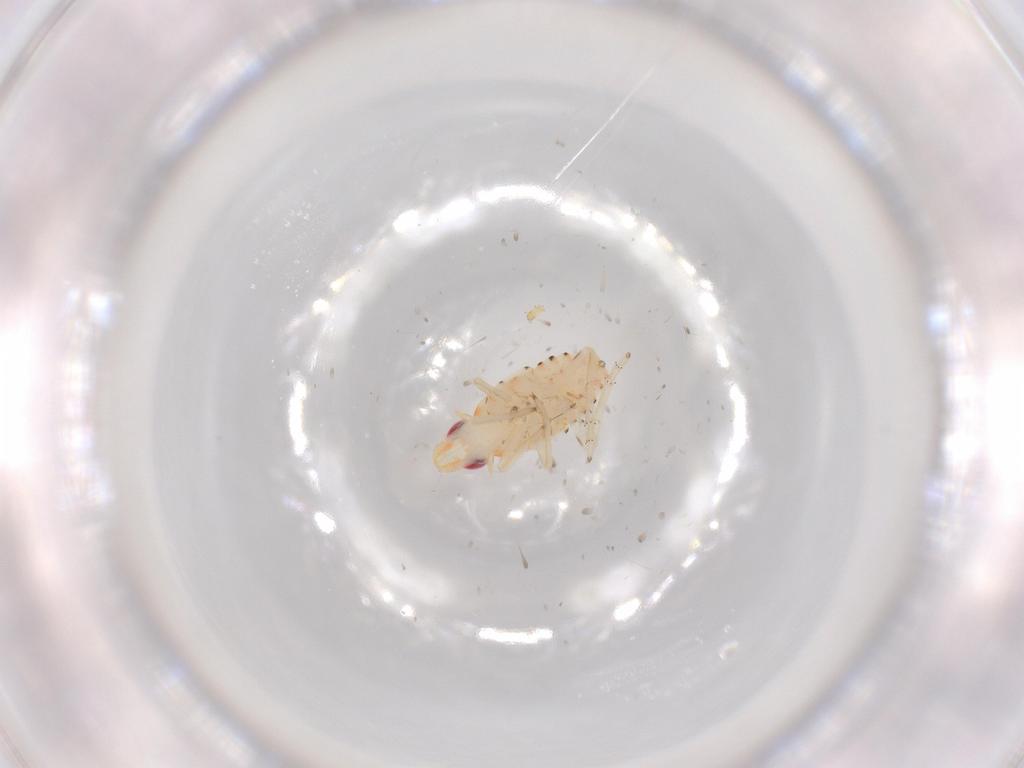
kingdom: Animalia
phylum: Arthropoda
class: Insecta
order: Hemiptera
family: Tropiduchidae
